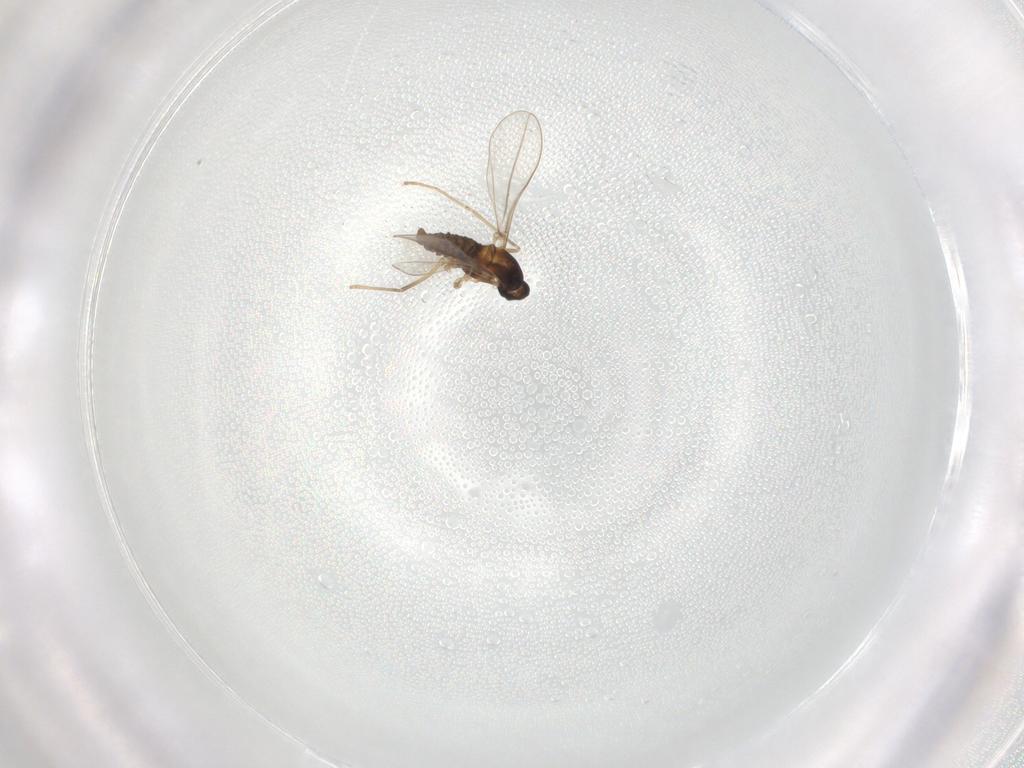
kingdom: Animalia
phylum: Arthropoda
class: Insecta
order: Diptera
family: Cecidomyiidae
